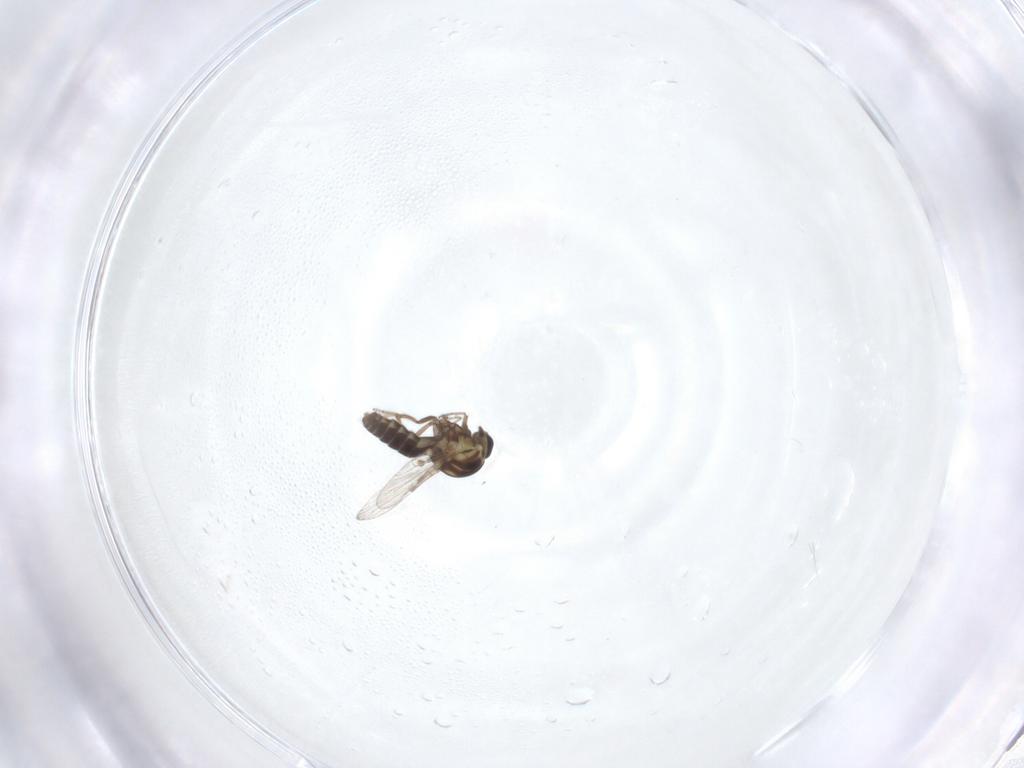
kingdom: Animalia
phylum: Arthropoda
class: Insecta
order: Diptera
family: Ceratopogonidae
